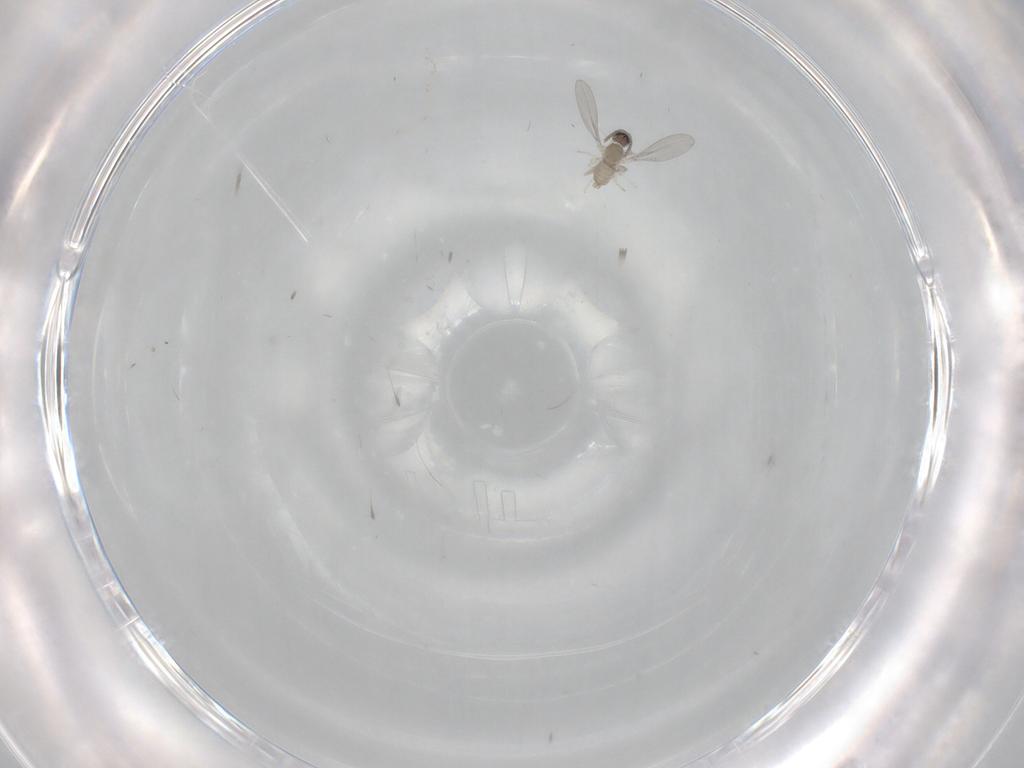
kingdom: Animalia
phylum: Arthropoda
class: Insecta
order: Diptera
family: Cecidomyiidae
